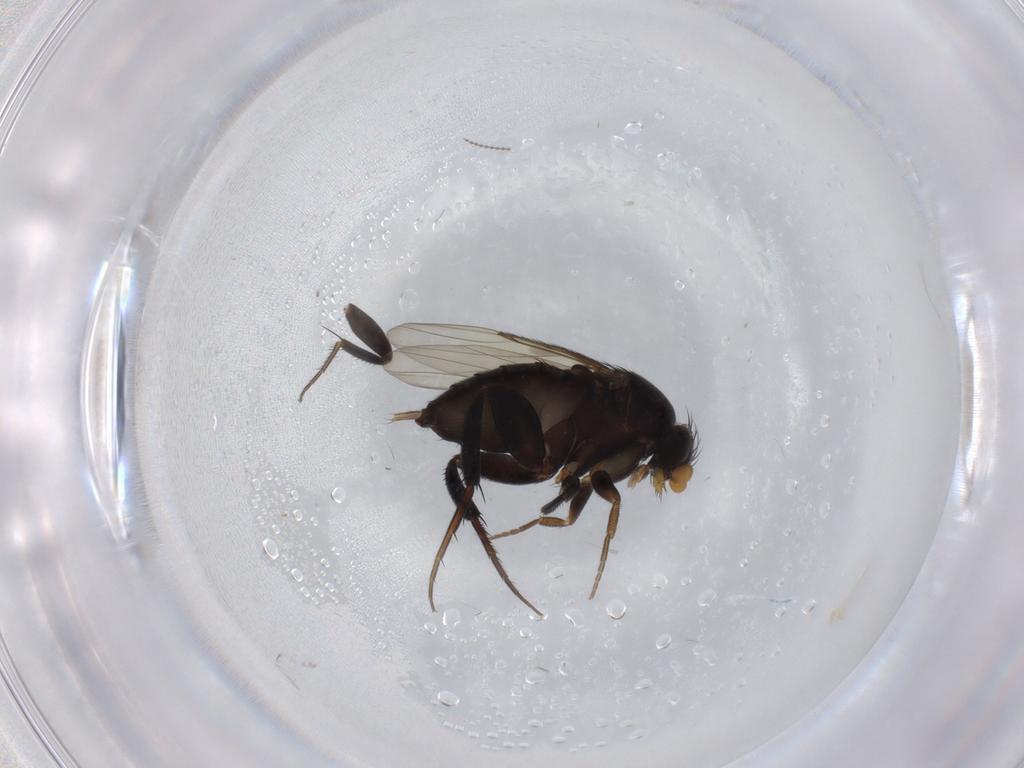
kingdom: Animalia
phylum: Arthropoda
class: Insecta
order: Diptera
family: Phoridae
